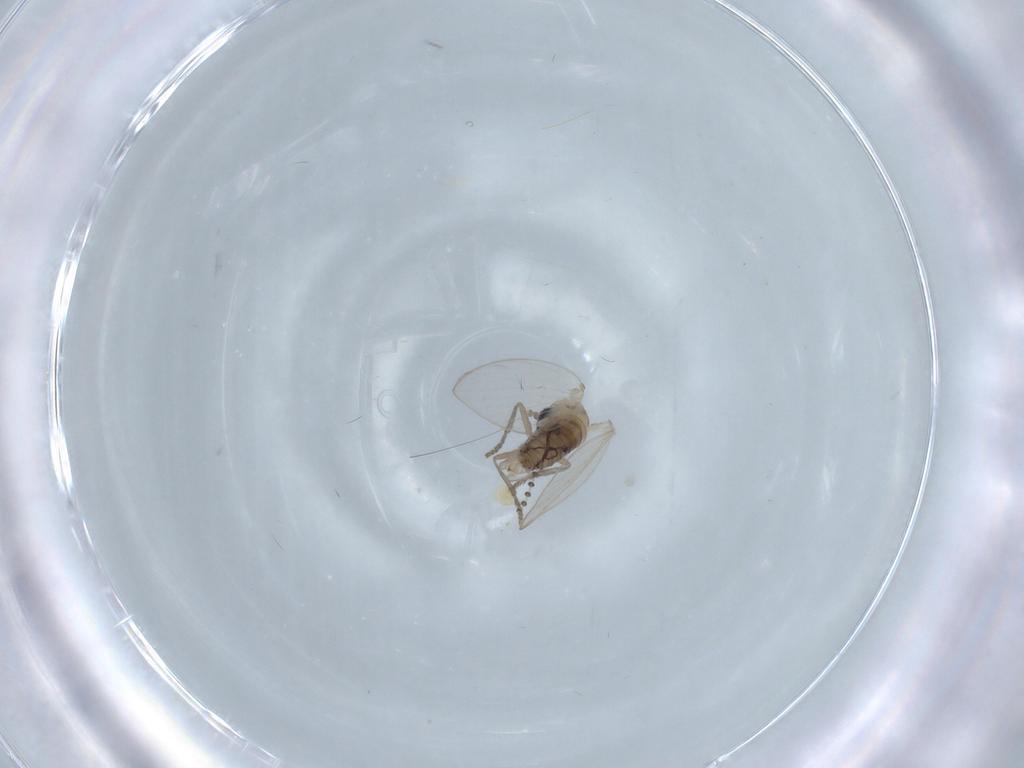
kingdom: Animalia
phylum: Arthropoda
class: Insecta
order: Diptera
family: Psychodidae
